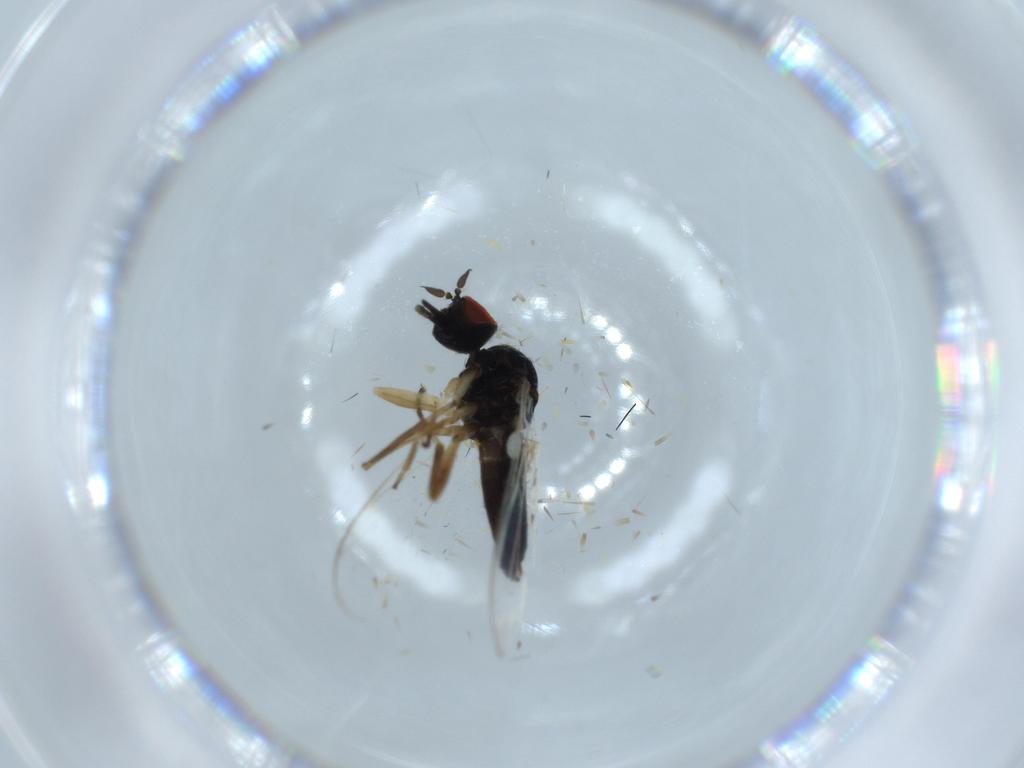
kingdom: Animalia
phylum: Arthropoda
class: Insecta
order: Diptera
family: Hybotidae
